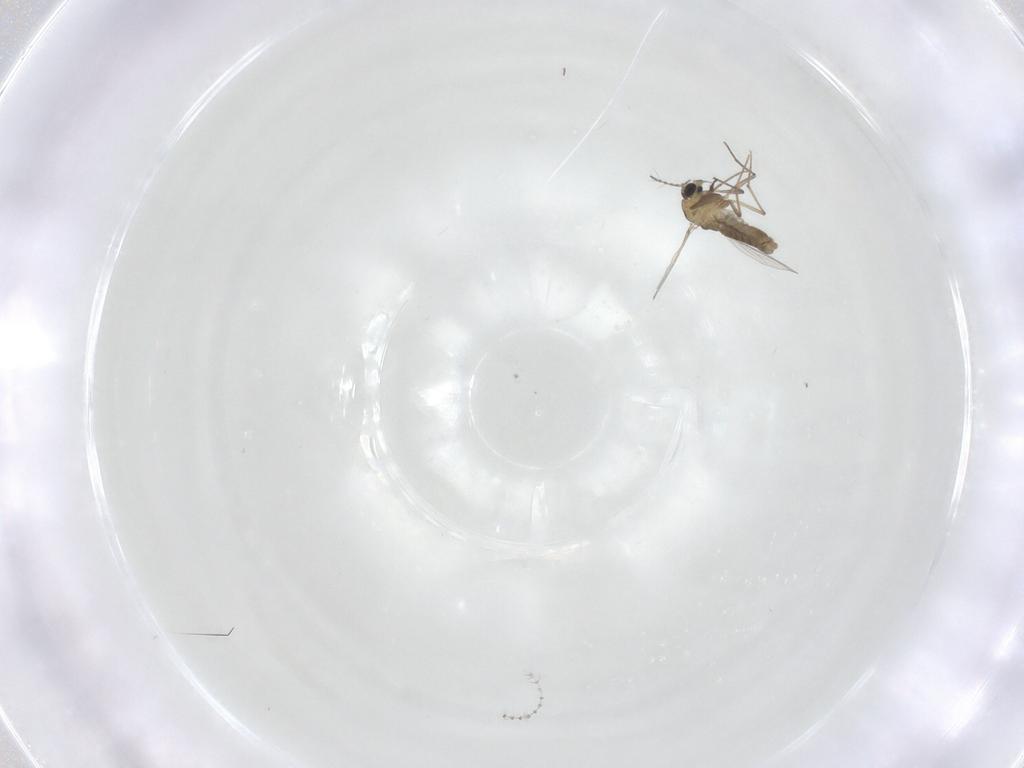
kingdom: Animalia
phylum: Arthropoda
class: Insecta
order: Diptera
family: Chironomidae
